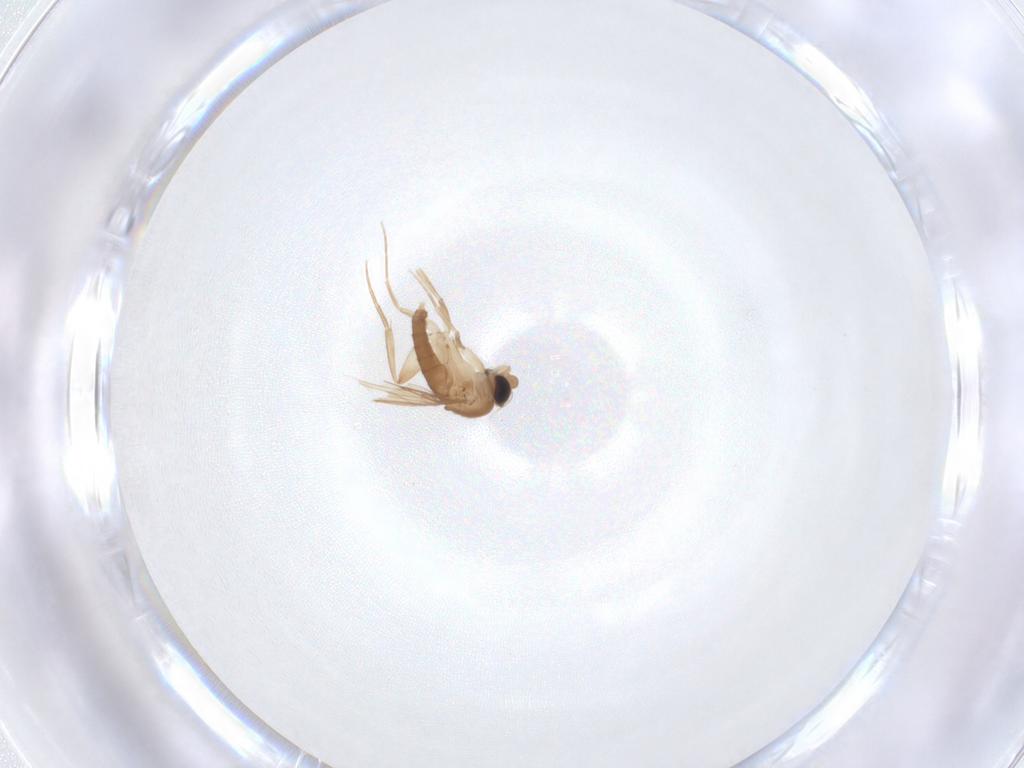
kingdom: Animalia
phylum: Arthropoda
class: Insecta
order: Diptera
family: Phoridae
